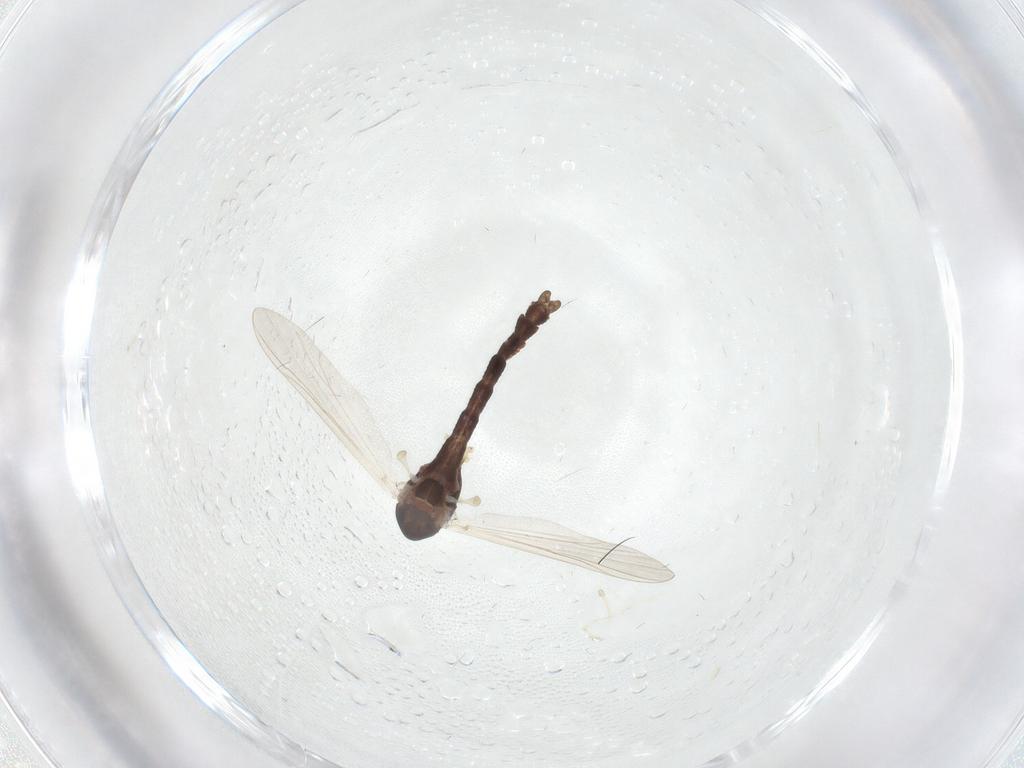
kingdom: Animalia
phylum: Arthropoda
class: Insecta
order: Diptera
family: Chironomidae
